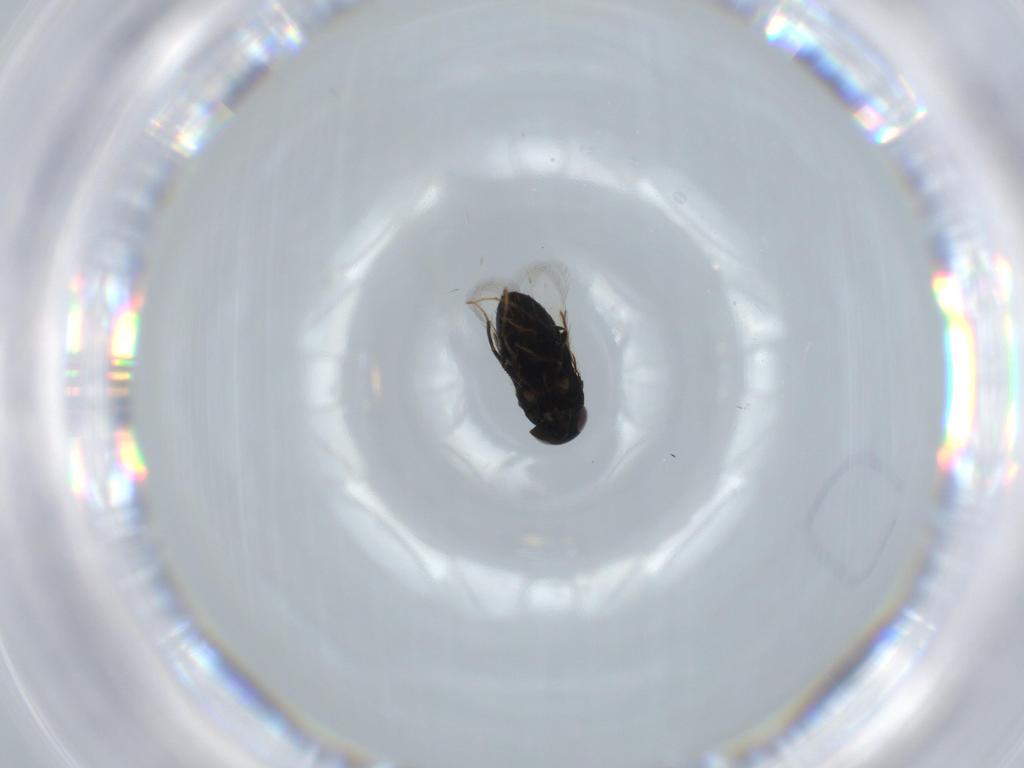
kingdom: Animalia
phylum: Arthropoda
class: Insecta
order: Hymenoptera
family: Signiphoridae
